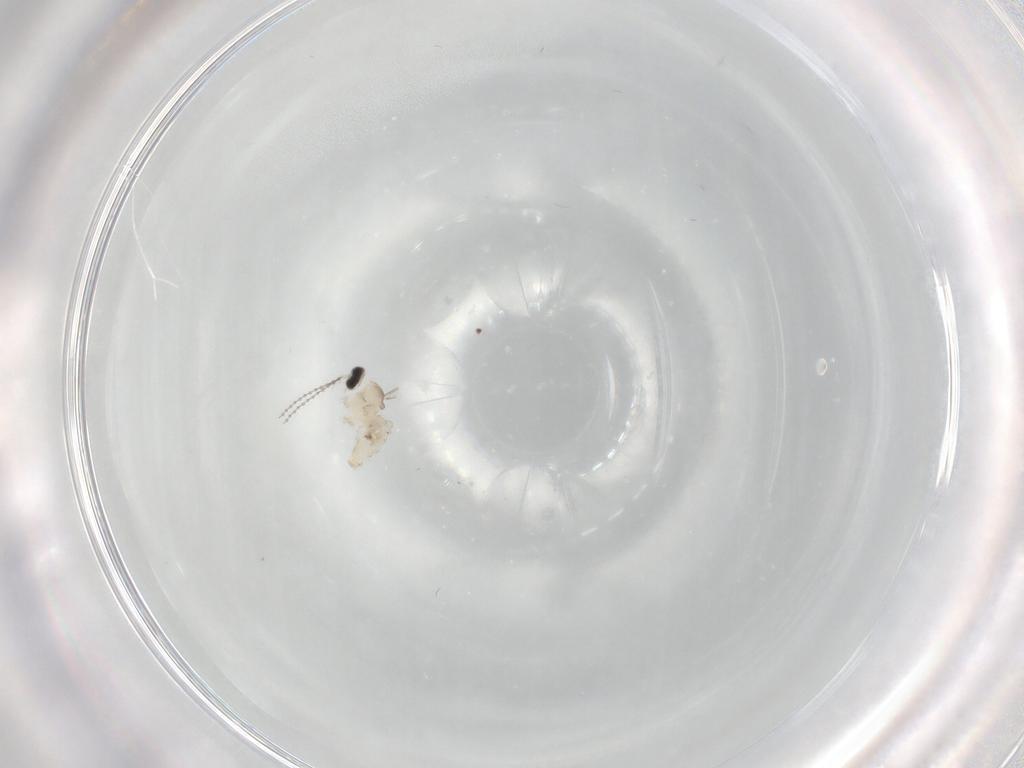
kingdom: Animalia
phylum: Arthropoda
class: Insecta
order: Diptera
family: Cecidomyiidae
